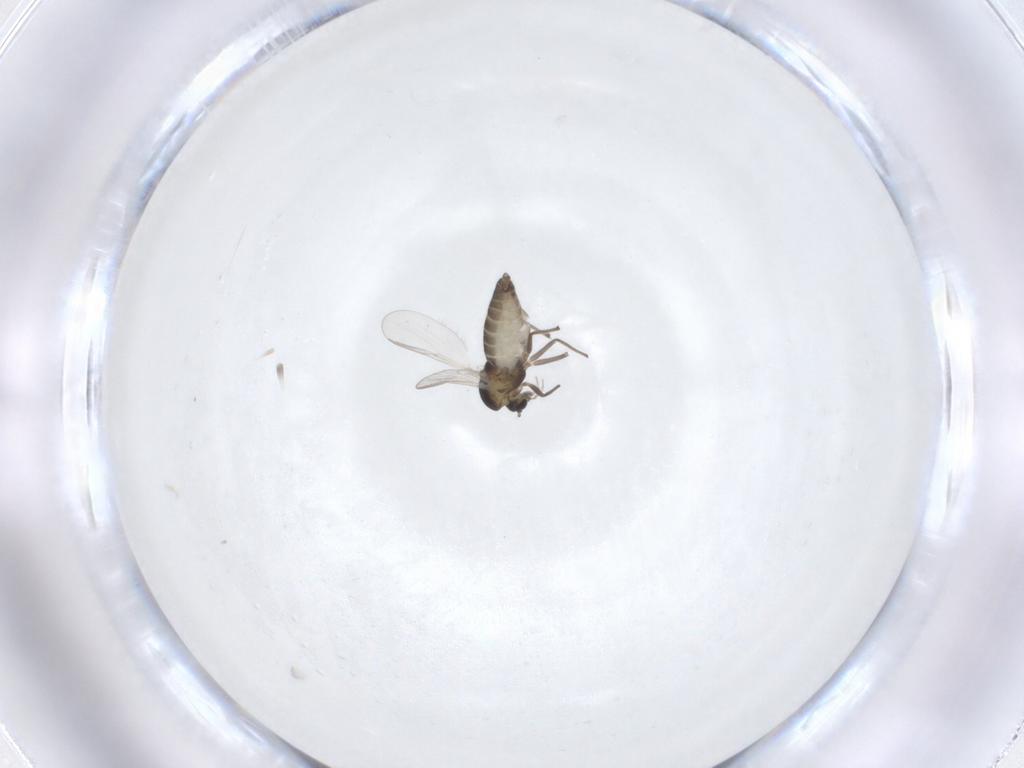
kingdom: Animalia
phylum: Arthropoda
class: Insecta
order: Diptera
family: Chironomidae
